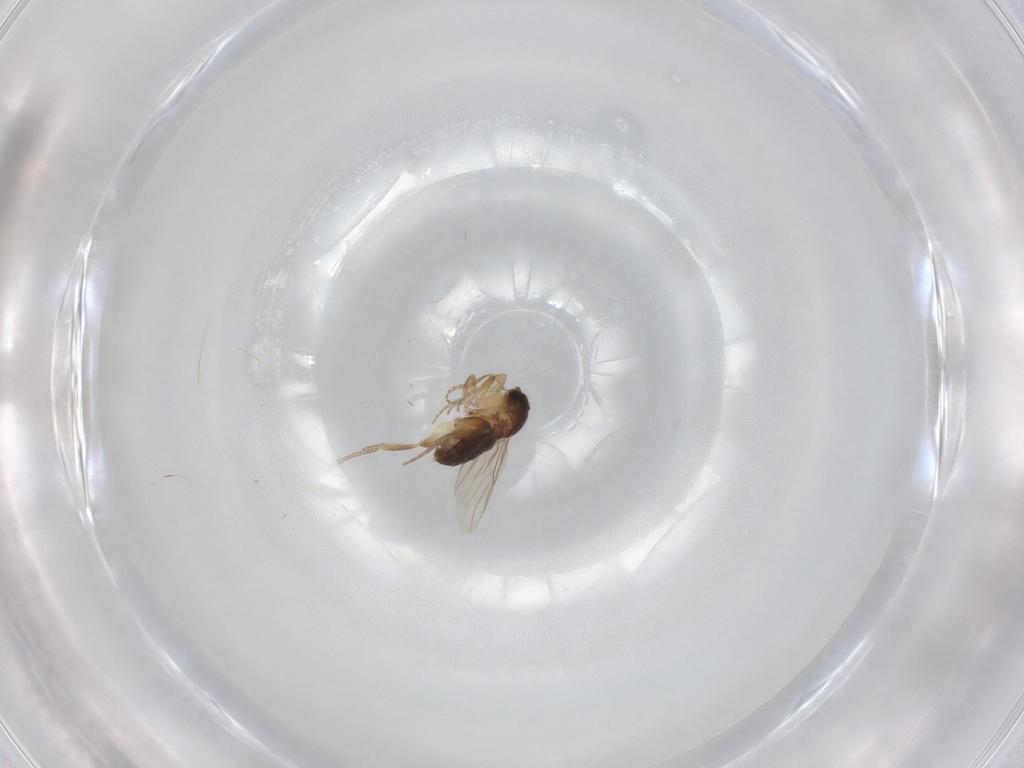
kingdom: Animalia
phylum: Arthropoda
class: Insecta
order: Diptera
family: Phoridae
